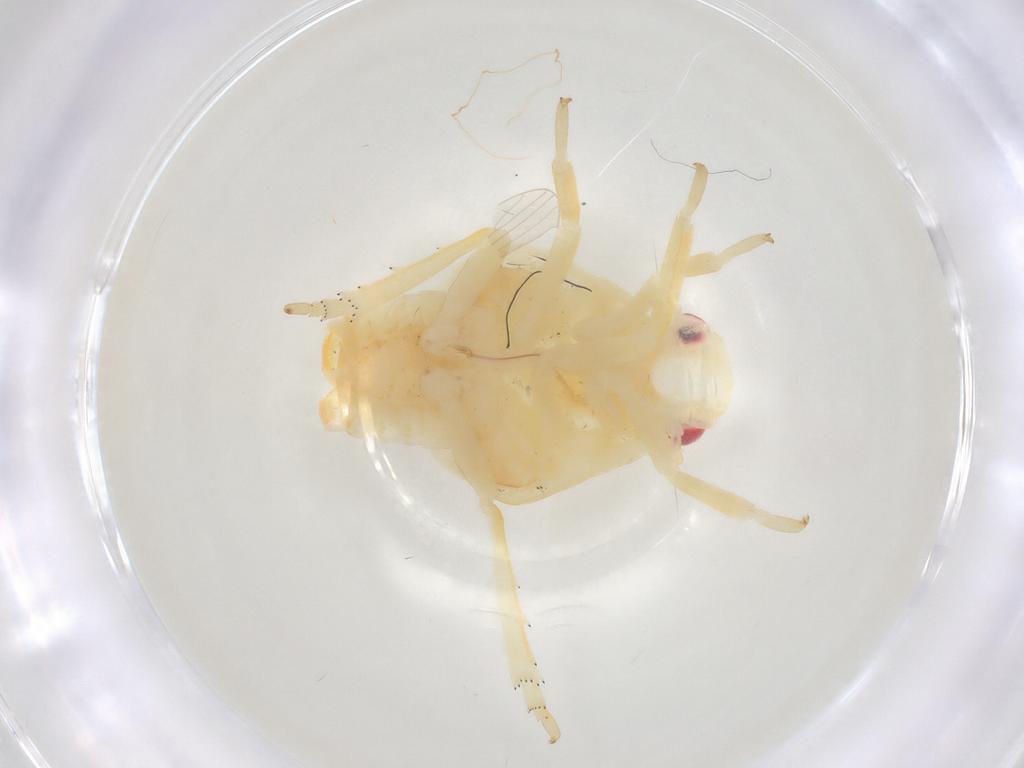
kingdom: Animalia
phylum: Arthropoda
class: Insecta
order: Hemiptera
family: Flatidae
